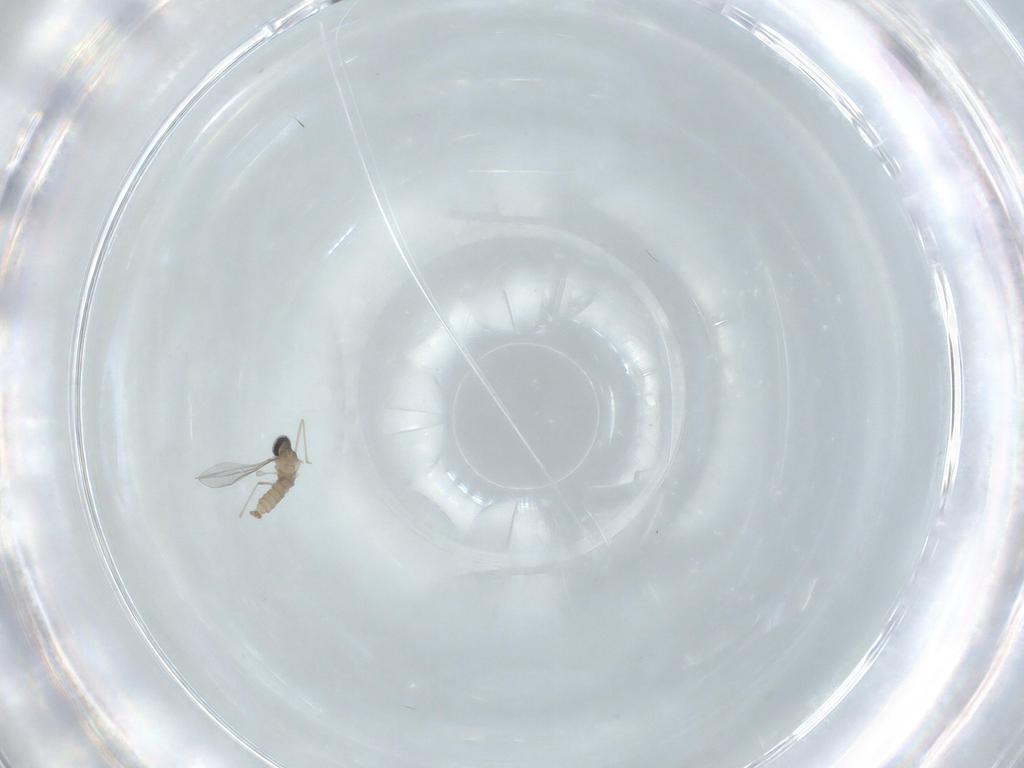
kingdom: Animalia
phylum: Arthropoda
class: Insecta
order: Diptera
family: Cecidomyiidae
